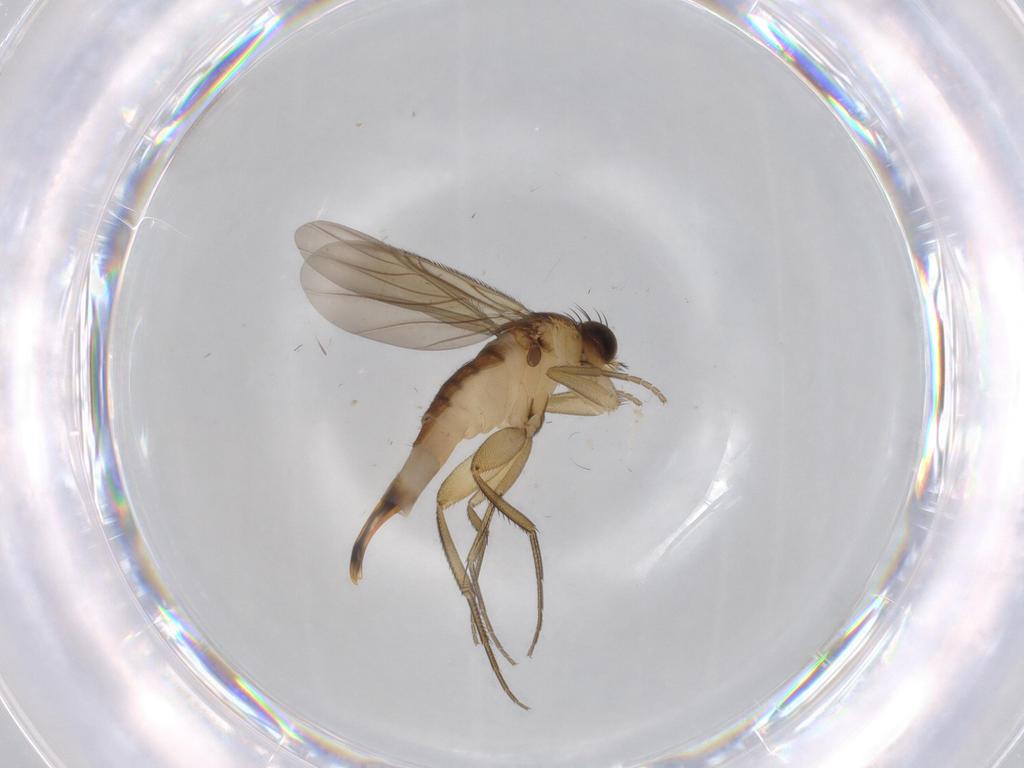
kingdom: Animalia
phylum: Arthropoda
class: Insecta
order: Diptera
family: Phoridae
